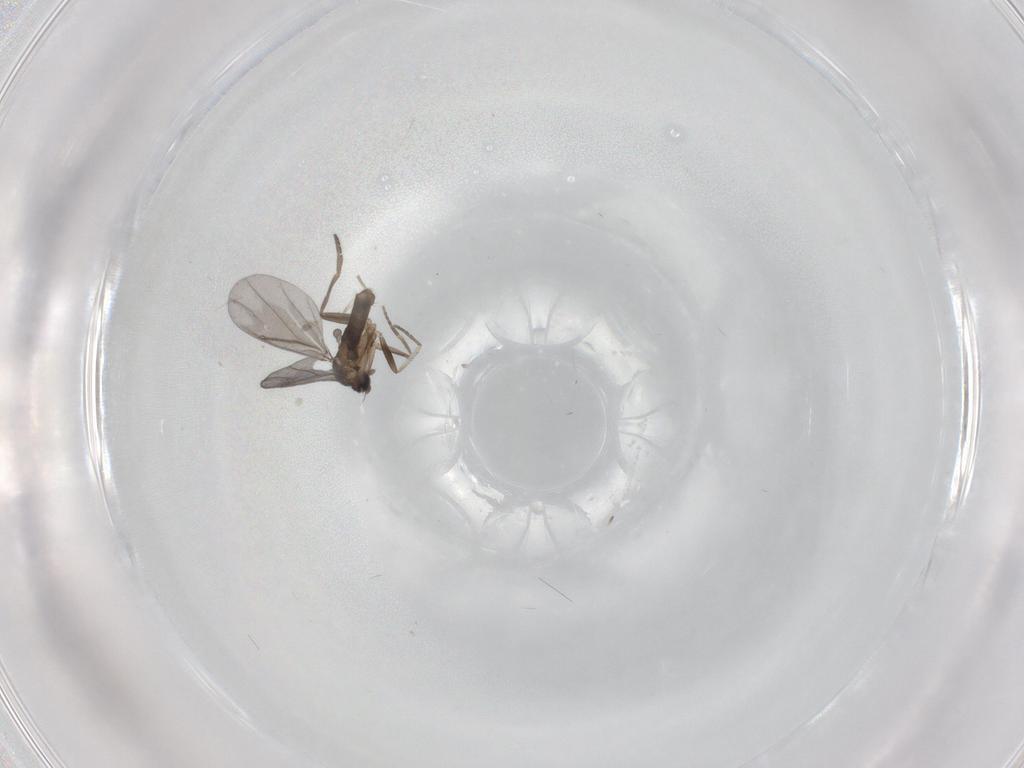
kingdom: Animalia
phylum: Arthropoda
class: Insecta
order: Diptera
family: Phoridae
